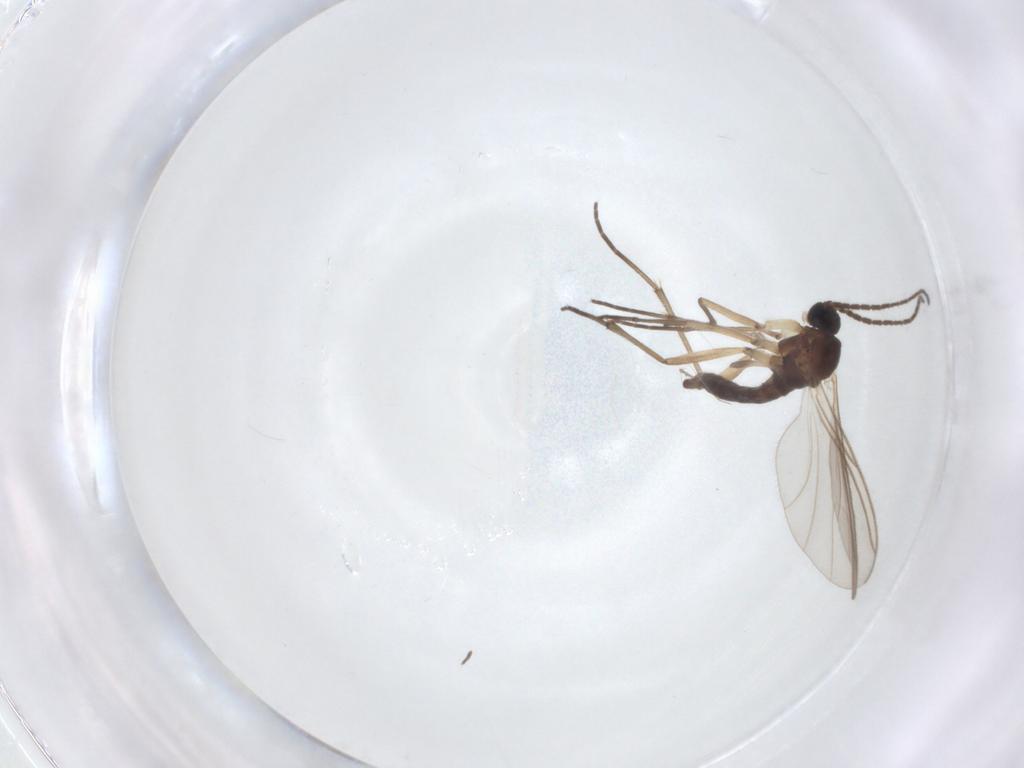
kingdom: Animalia
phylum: Arthropoda
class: Insecta
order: Diptera
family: Sciaridae
